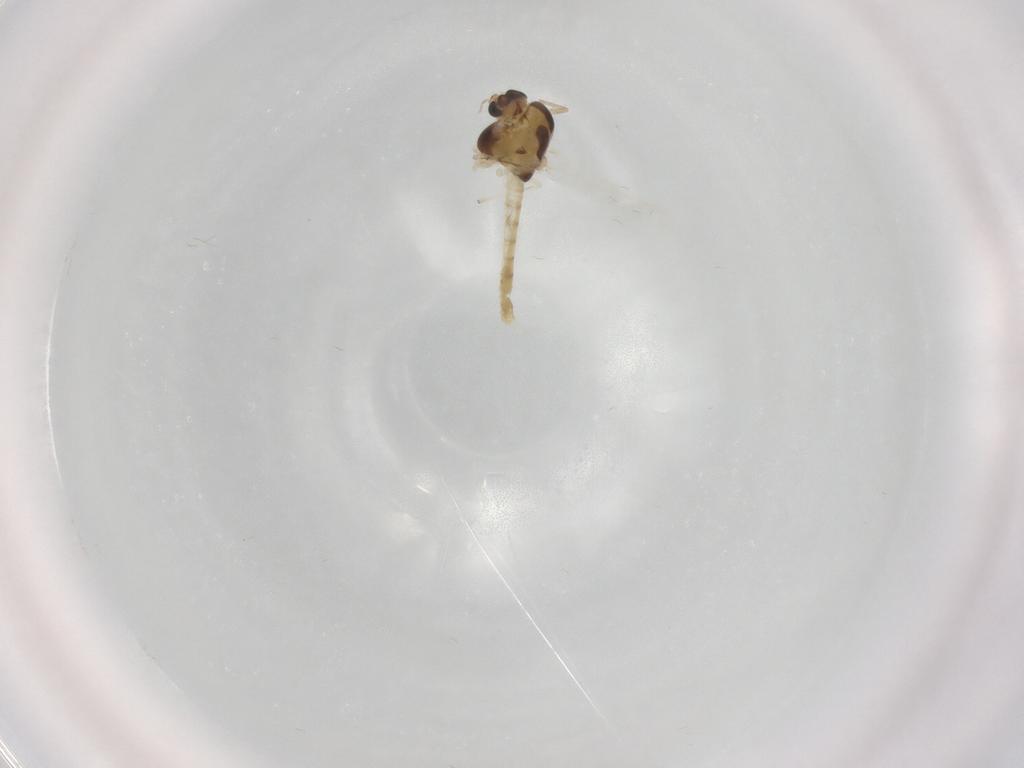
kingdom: Animalia
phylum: Arthropoda
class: Insecta
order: Diptera
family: Chironomidae
